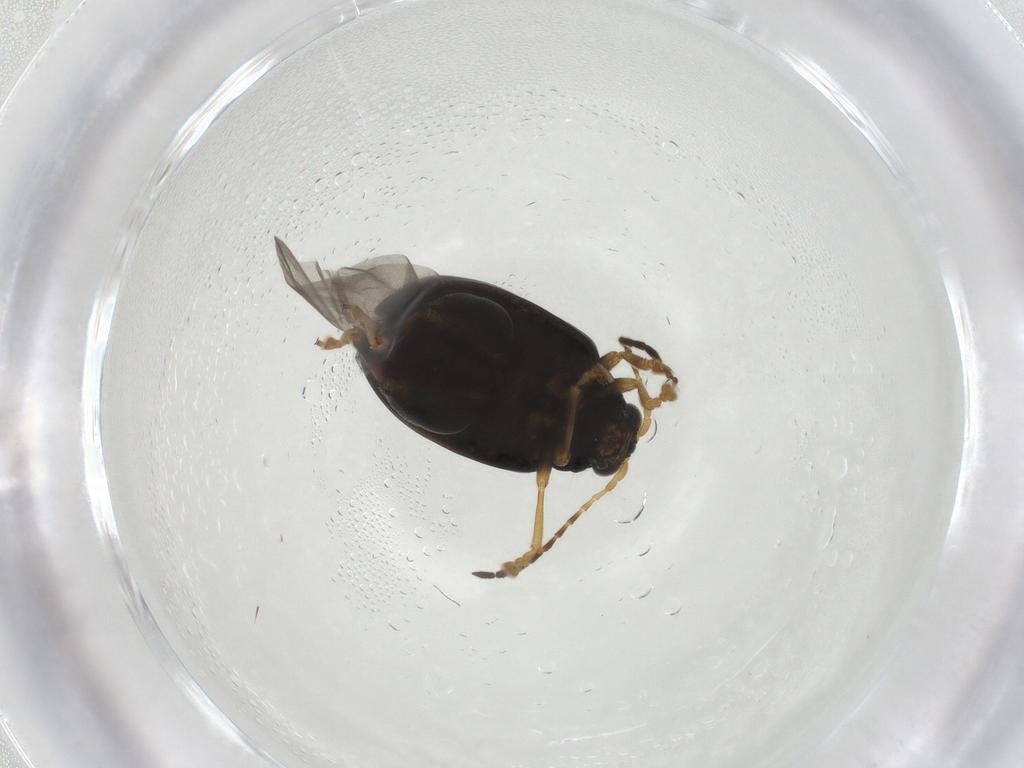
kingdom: Animalia
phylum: Arthropoda
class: Insecta
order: Coleoptera
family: Chrysomelidae
